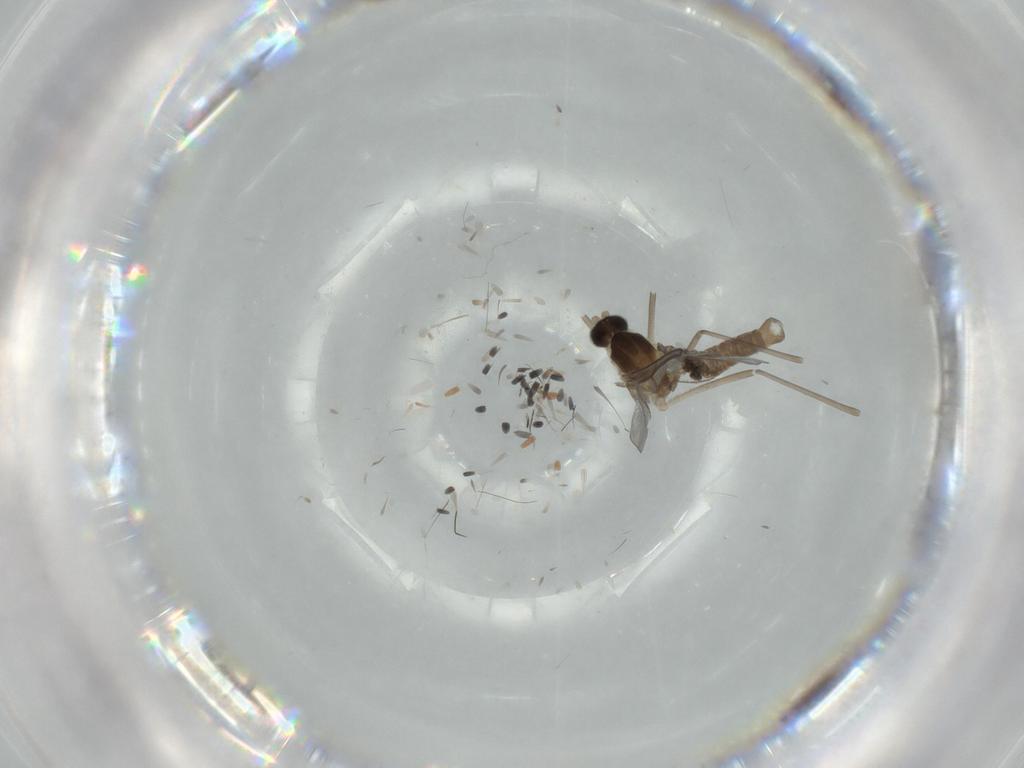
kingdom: Animalia
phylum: Arthropoda
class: Insecta
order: Diptera
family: Cecidomyiidae
